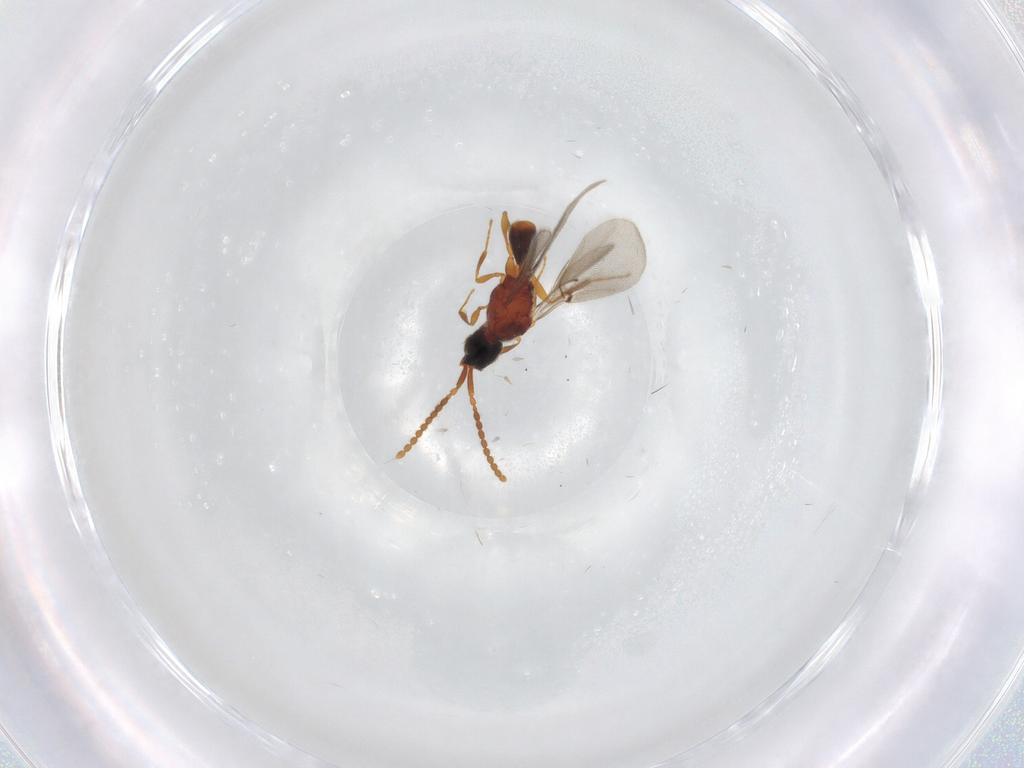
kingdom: Animalia
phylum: Arthropoda
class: Insecta
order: Hymenoptera
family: Diapriidae
